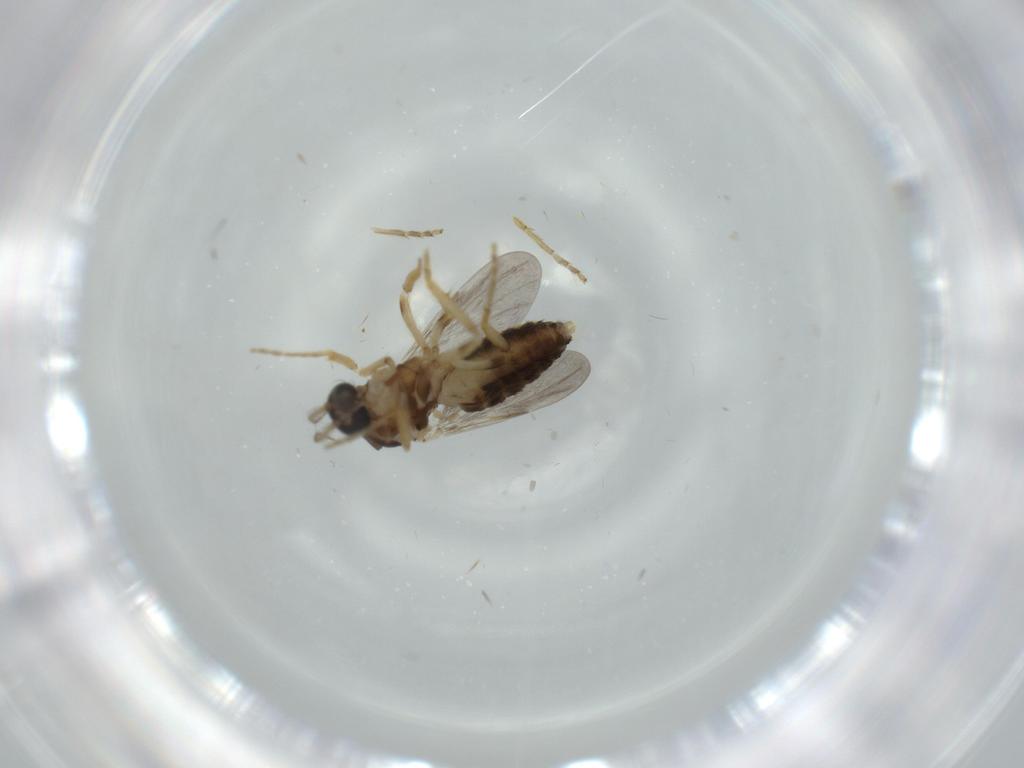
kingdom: Animalia
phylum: Arthropoda
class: Insecta
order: Diptera
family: Ceratopogonidae
